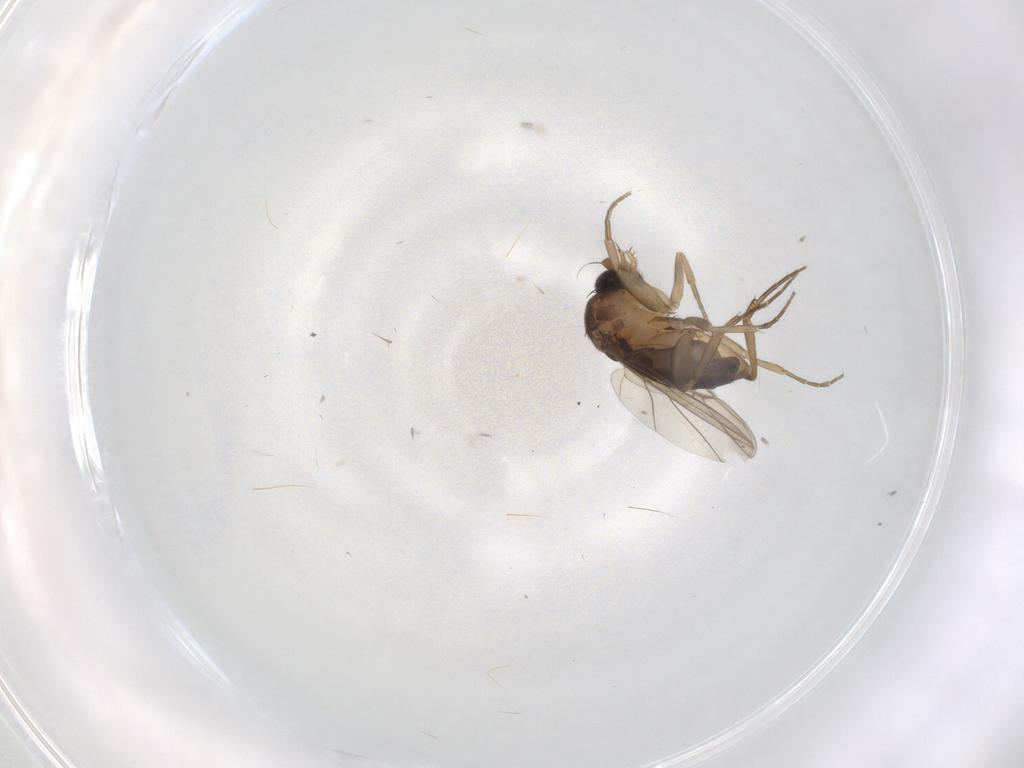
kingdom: Animalia
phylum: Arthropoda
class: Insecta
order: Diptera
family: Phoridae
